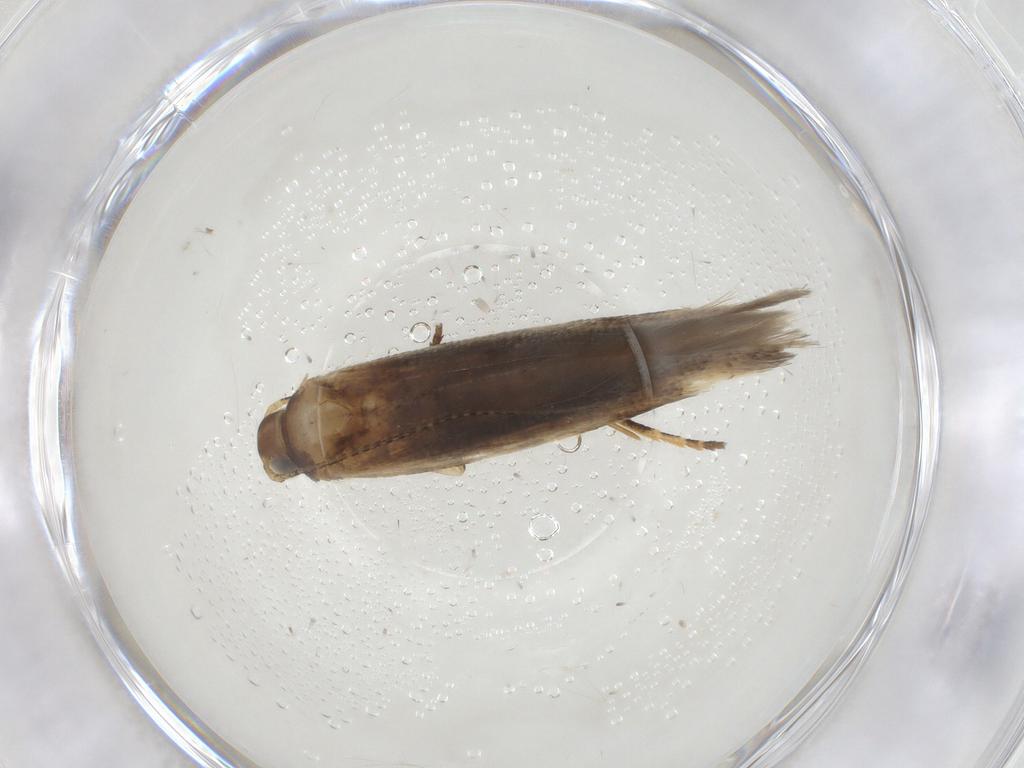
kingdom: Animalia
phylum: Arthropoda
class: Insecta
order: Lepidoptera
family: Gelechiidae
